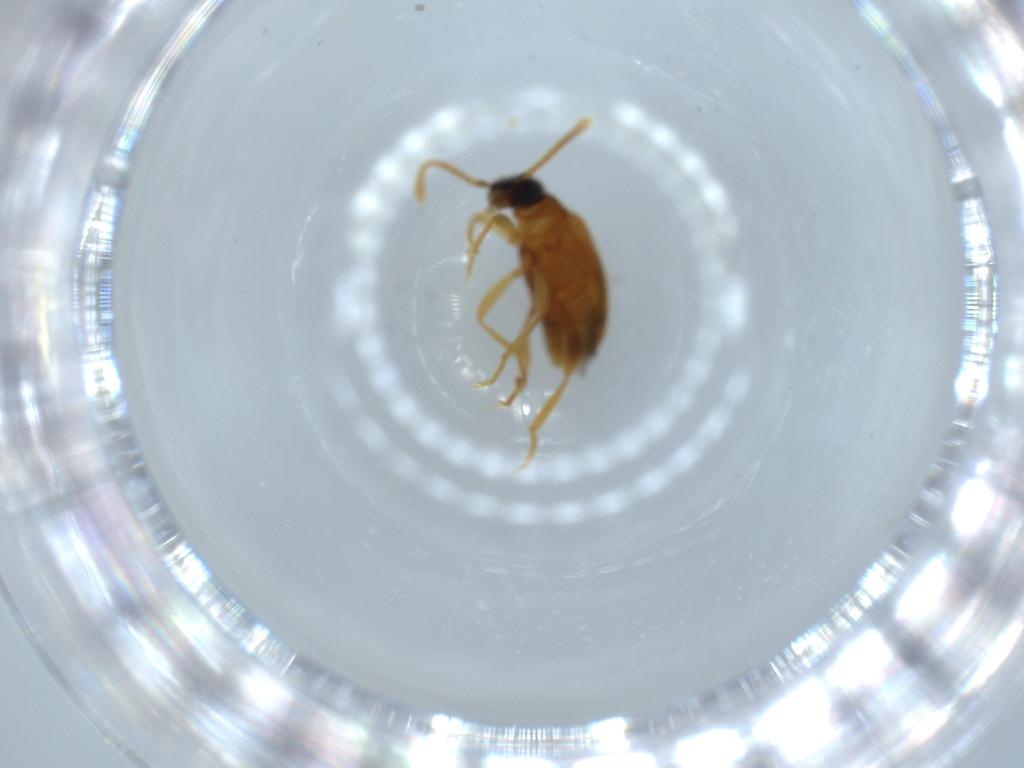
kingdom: Animalia
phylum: Arthropoda
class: Insecta
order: Coleoptera
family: Aderidae
